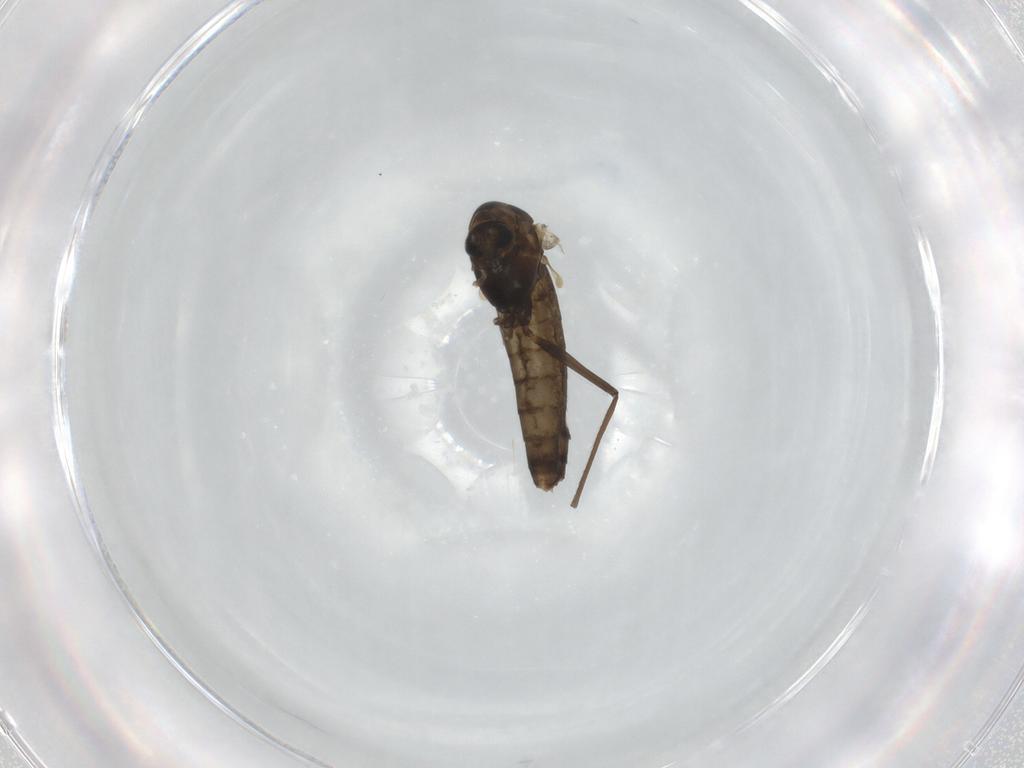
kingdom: Animalia
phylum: Arthropoda
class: Insecta
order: Diptera
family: Chironomidae
